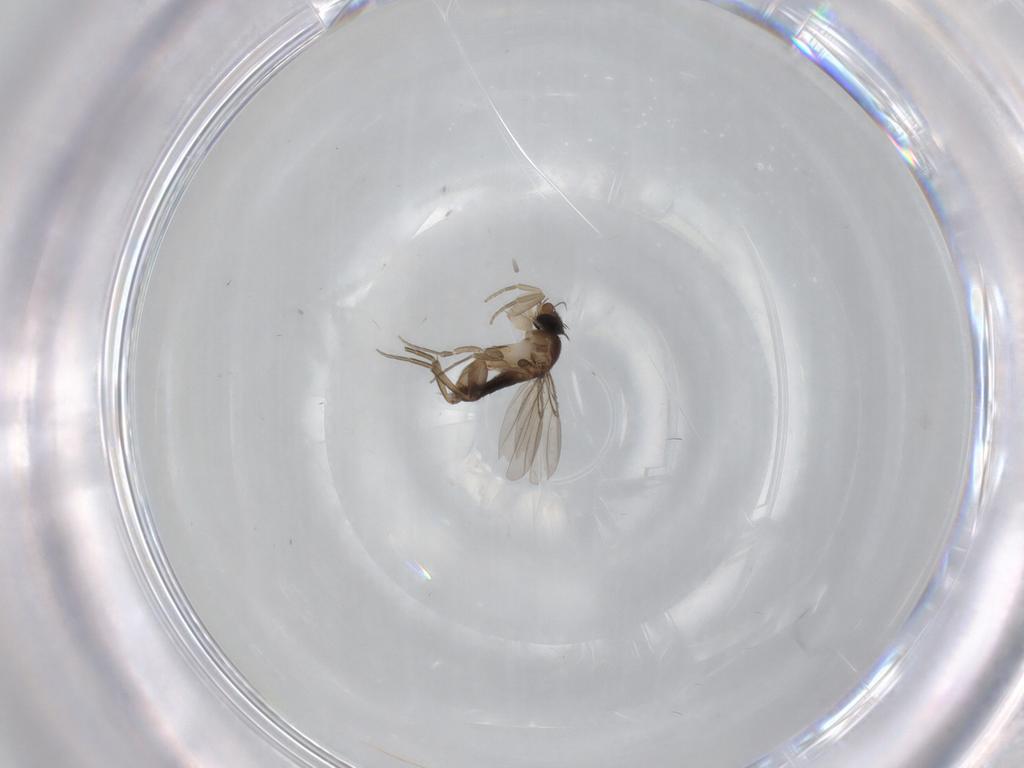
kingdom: Animalia
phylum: Arthropoda
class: Insecta
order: Diptera
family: Phoridae
